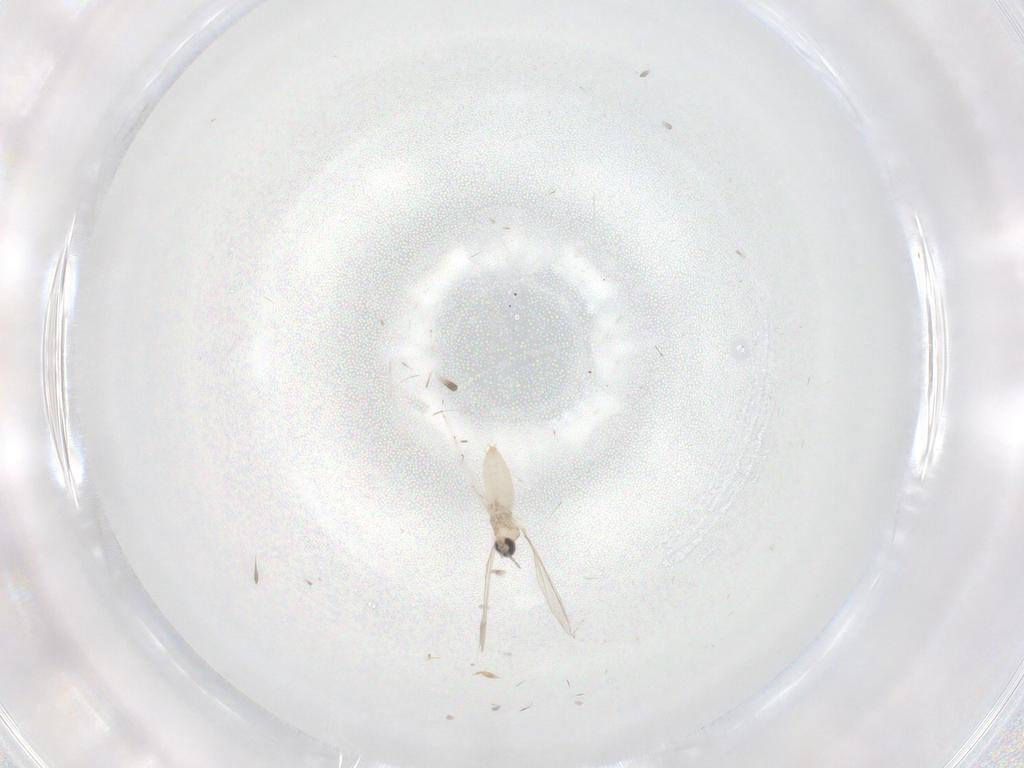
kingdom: Animalia
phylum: Arthropoda
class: Insecta
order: Diptera
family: Cecidomyiidae
